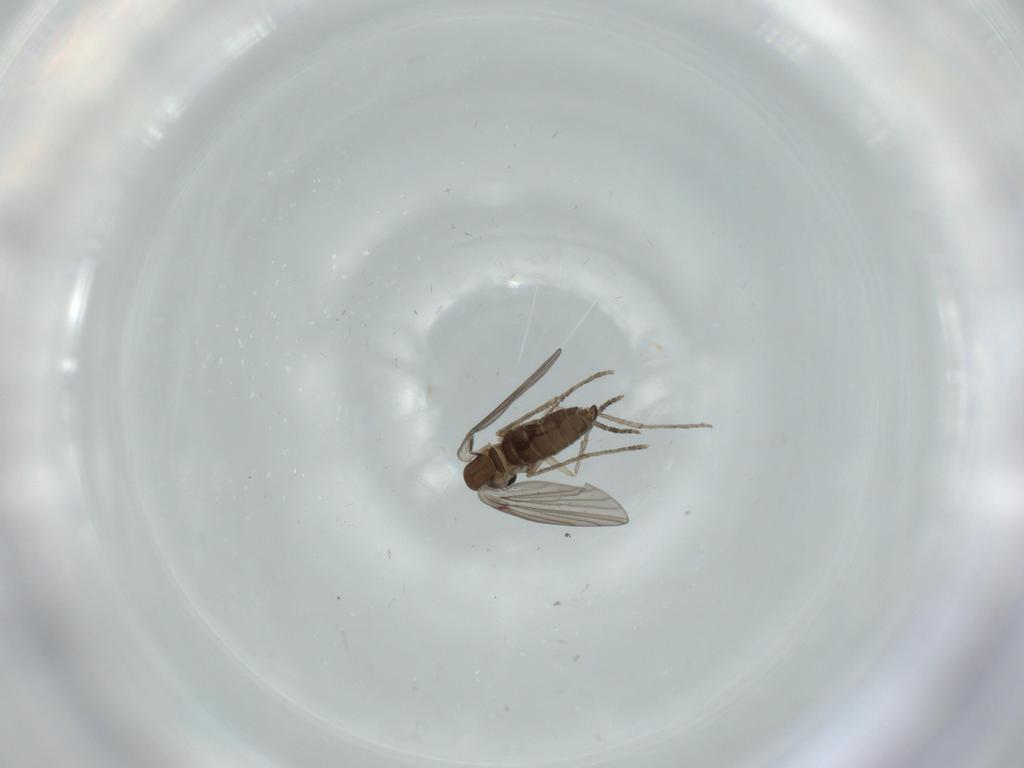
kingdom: Animalia
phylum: Arthropoda
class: Insecta
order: Diptera
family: Psychodidae
